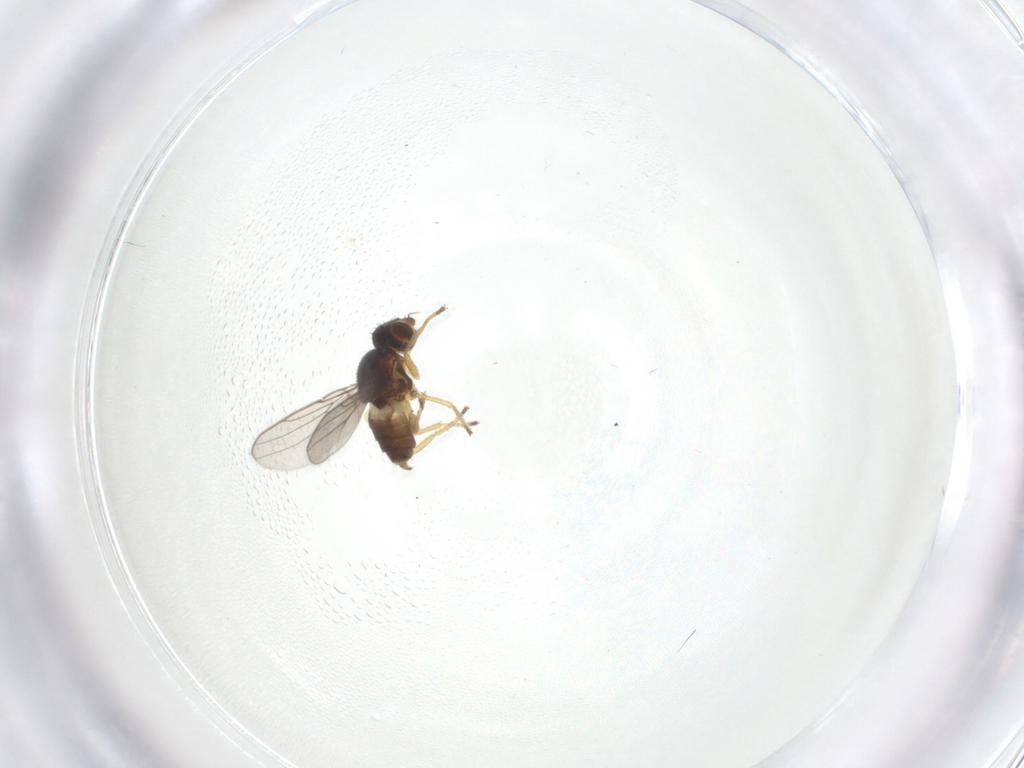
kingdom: Animalia
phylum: Arthropoda
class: Insecta
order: Diptera
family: Chloropidae
